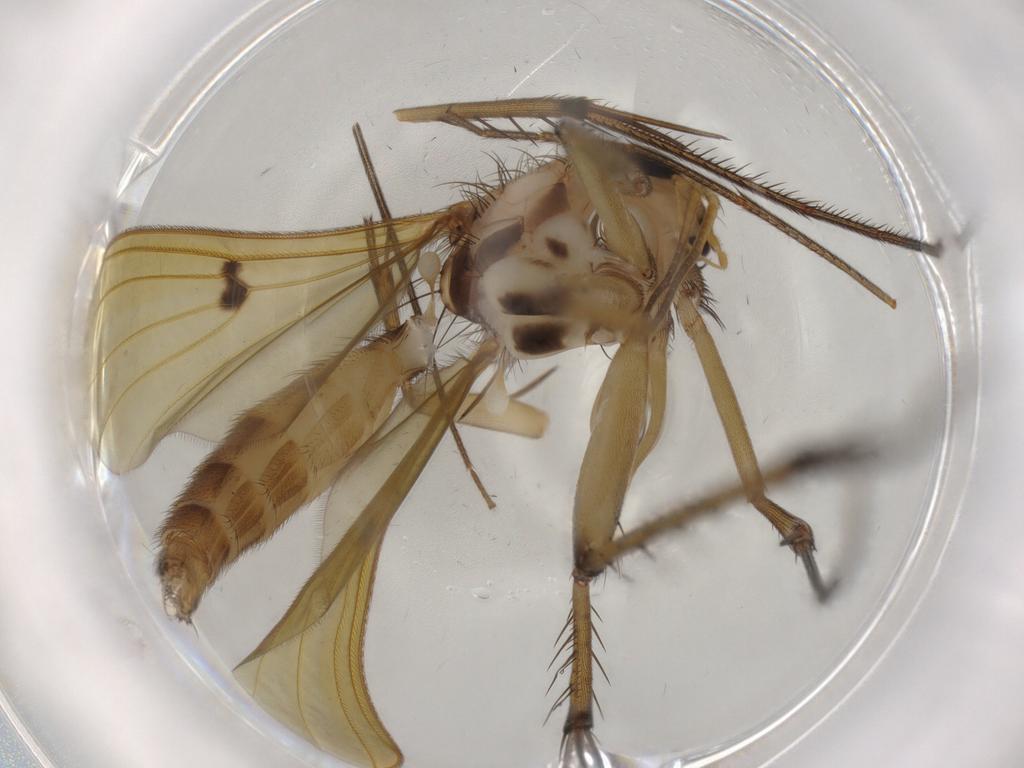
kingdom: Animalia
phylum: Arthropoda
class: Insecta
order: Diptera
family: Mycetophilidae
